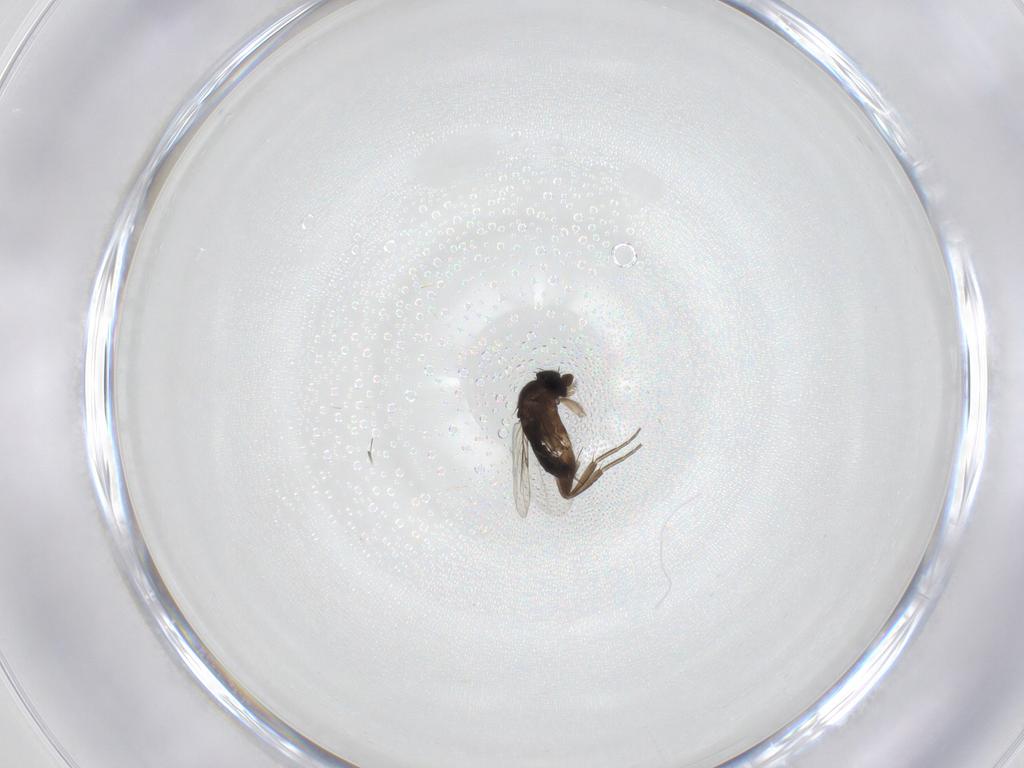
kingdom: Animalia
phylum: Arthropoda
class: Insecta
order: Diptera
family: Phoridae
